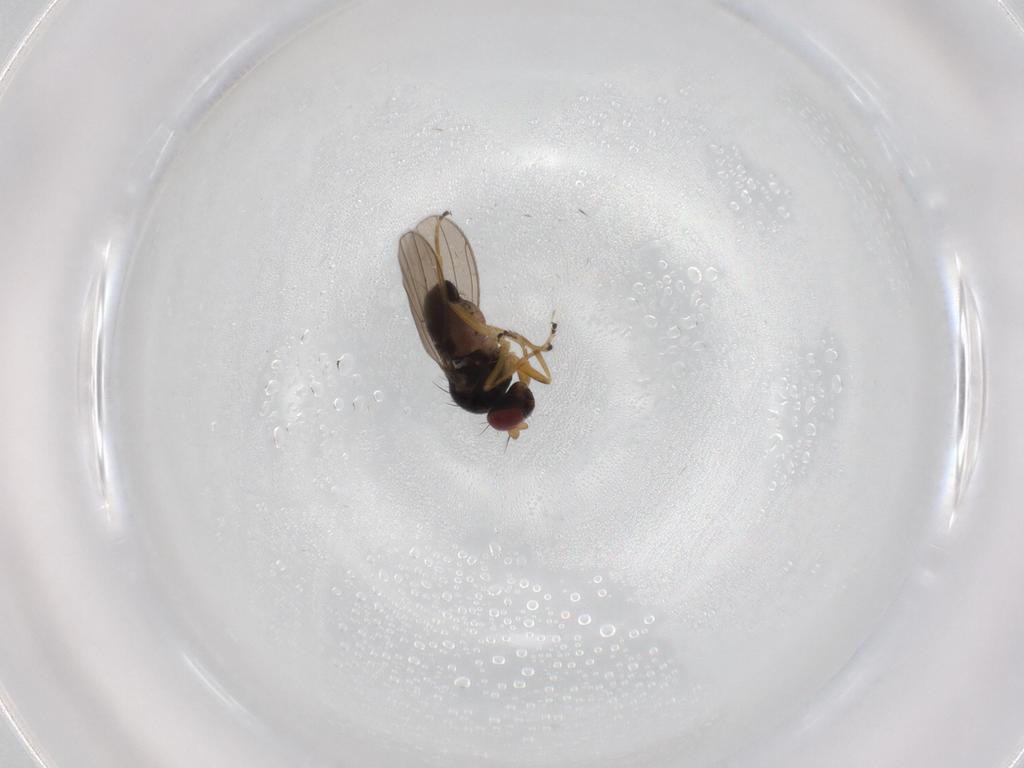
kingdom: Animalia
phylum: Arthropoda
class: Insecta
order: Diptera
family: Ephydridae
